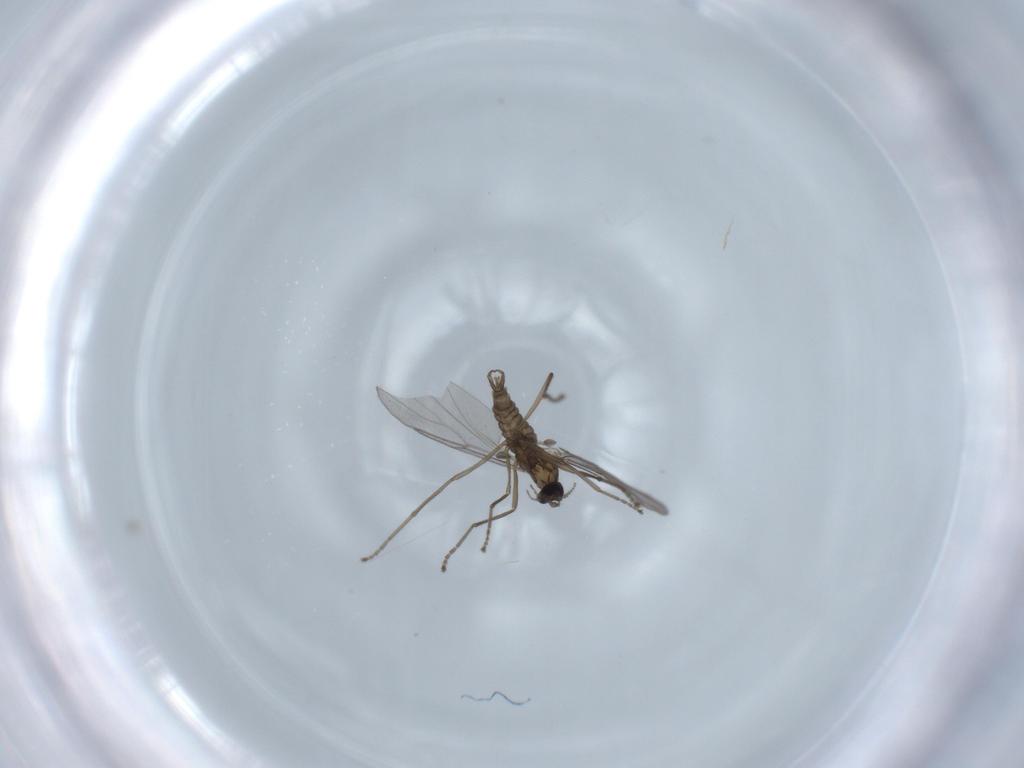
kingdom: Animalia
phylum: Arthropoda
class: Insecta
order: Diptera
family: Cecidomyiidae
